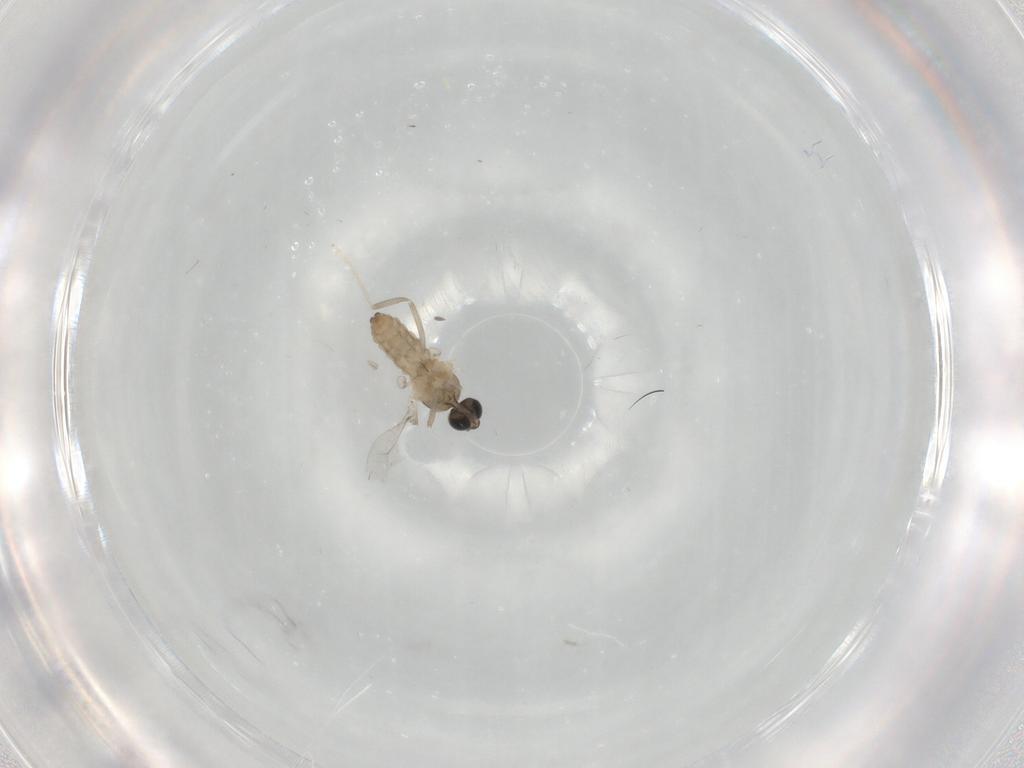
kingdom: Animalia
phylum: Arthropoda
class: Insecta
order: Diptera
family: Cecidomyiidae
